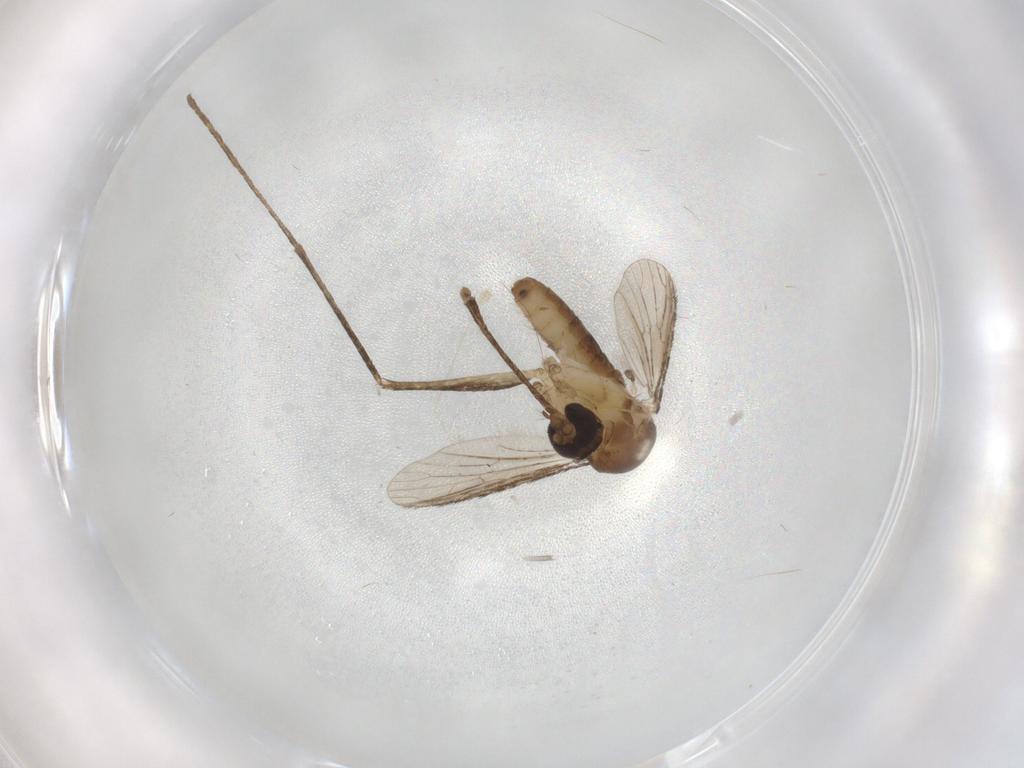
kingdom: Animalia
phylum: Arthropoda
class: Insecta
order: Diptera
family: Culicidae
